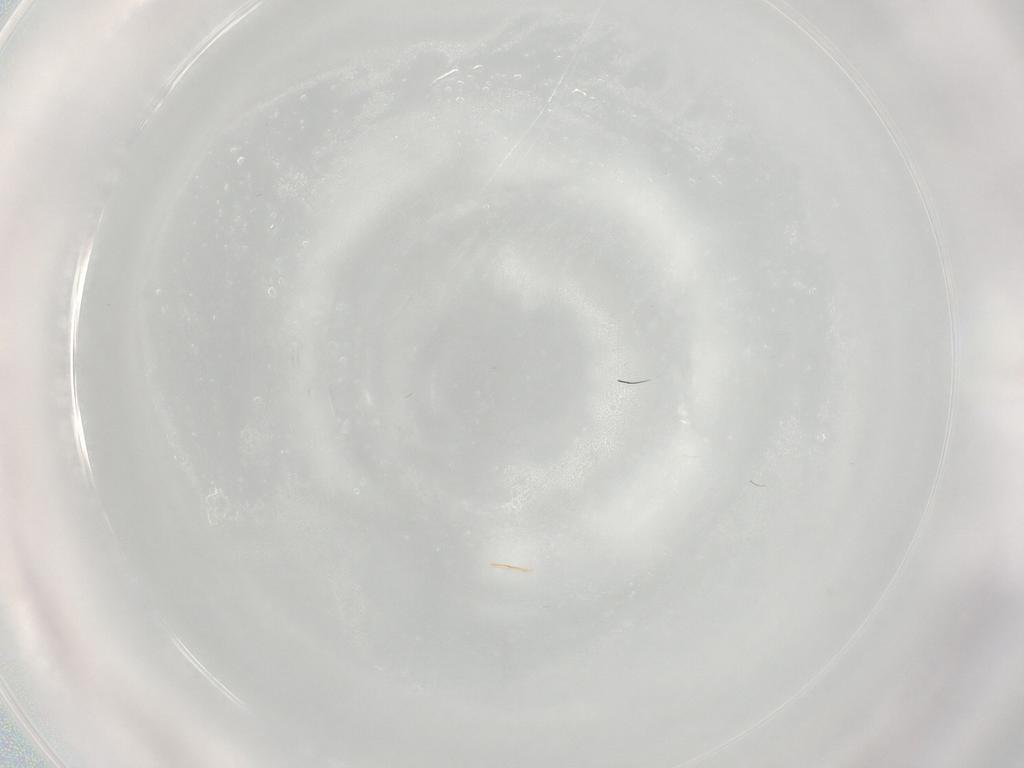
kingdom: Animalia
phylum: Arthropoda
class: Insecta
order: Diptera
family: Cecidomyiidae
